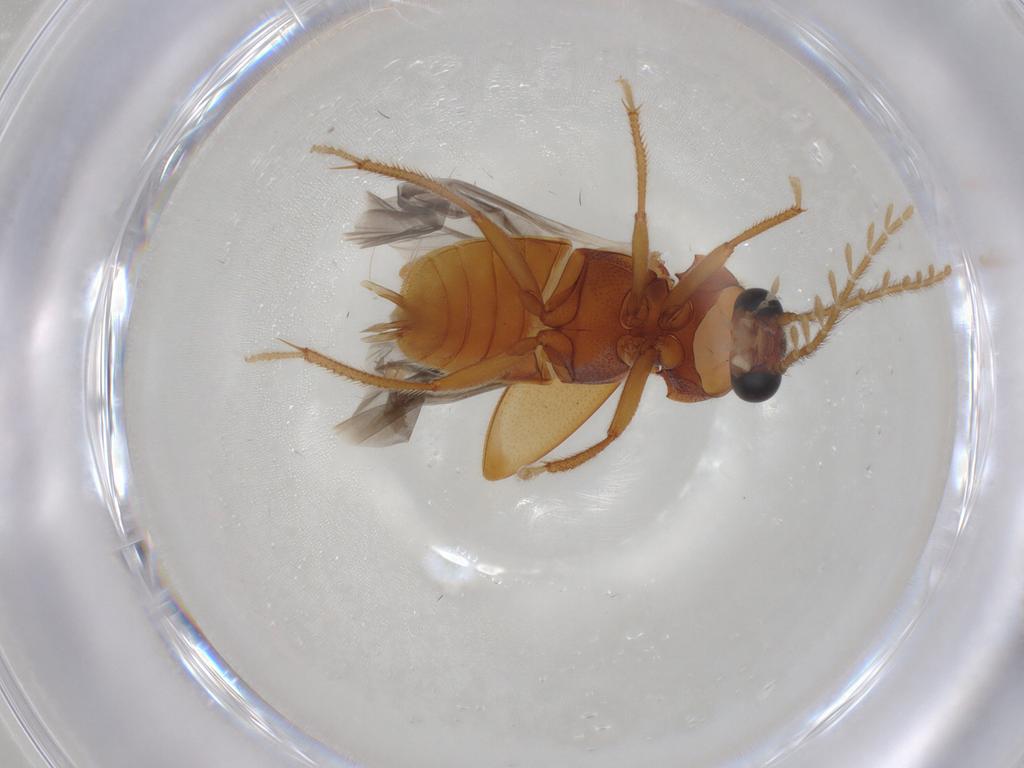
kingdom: Animalia
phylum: Arthropoda
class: Insecta
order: Coleoptera
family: Ptilodactylidae
